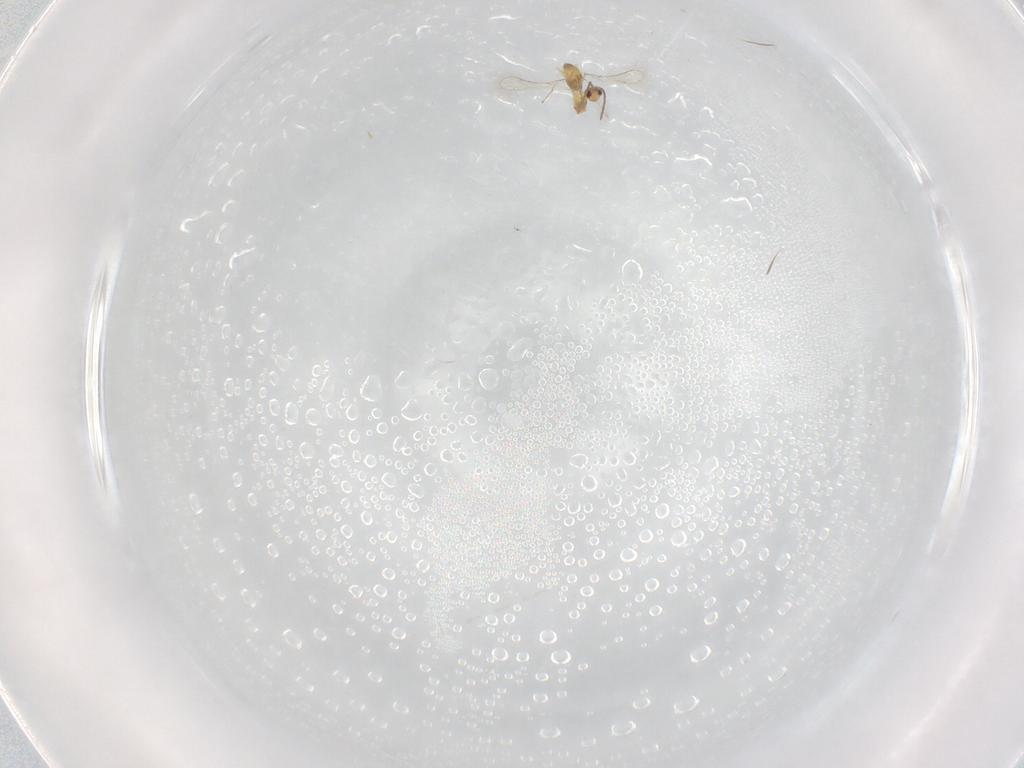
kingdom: Animalia
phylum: Arthropoda
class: Insecta
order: Hymenoptera
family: Mymaridae
